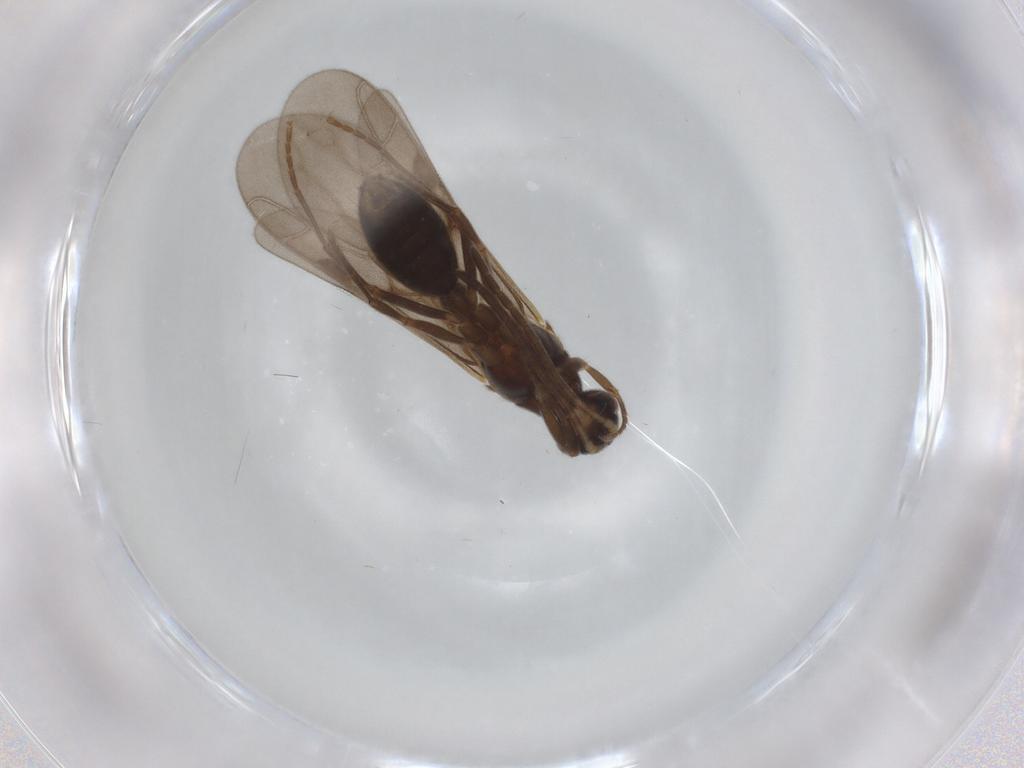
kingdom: Animalia
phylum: Arthropoda
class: Insecta
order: Hymenoptera
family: Formicidae
